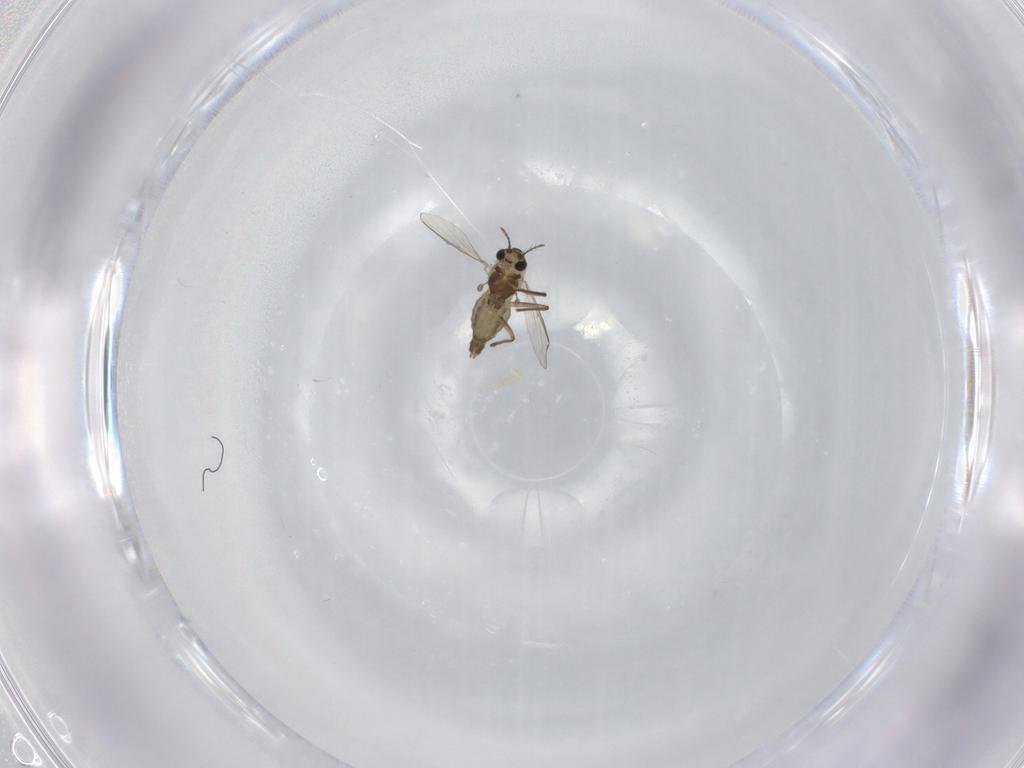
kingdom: Animalia
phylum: Arthropoda
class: Insecta
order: Diptera
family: Chironomidae
